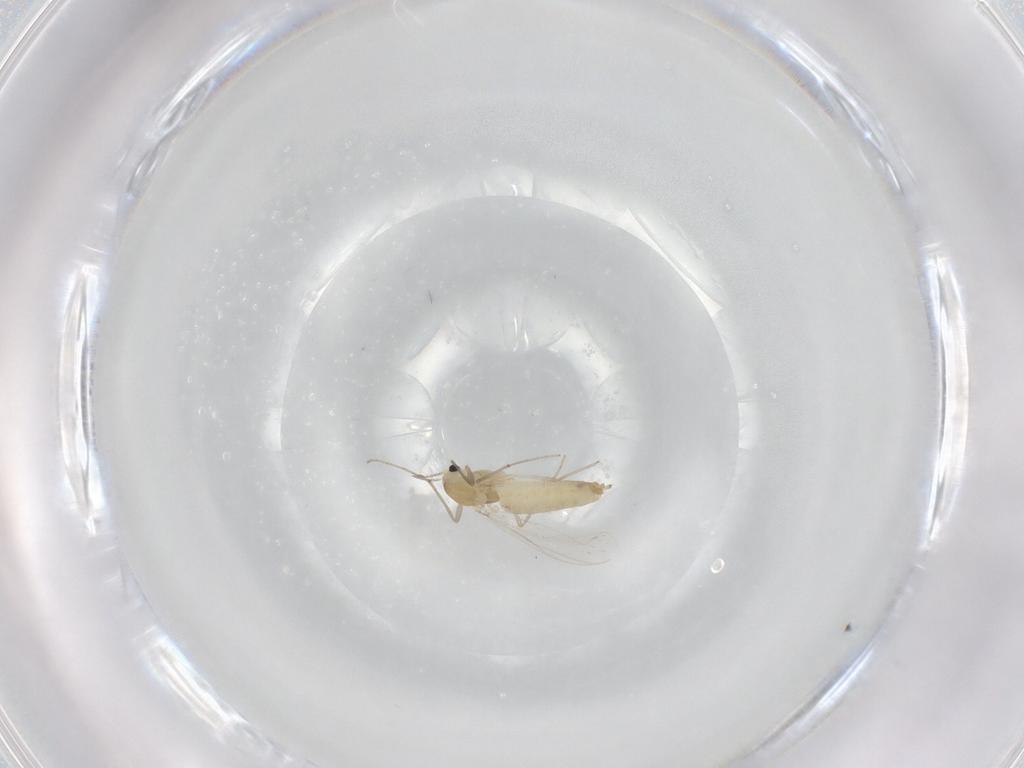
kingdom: Animalia
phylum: Arthropoda
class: Insecta
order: Diptera
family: Chironomidae
